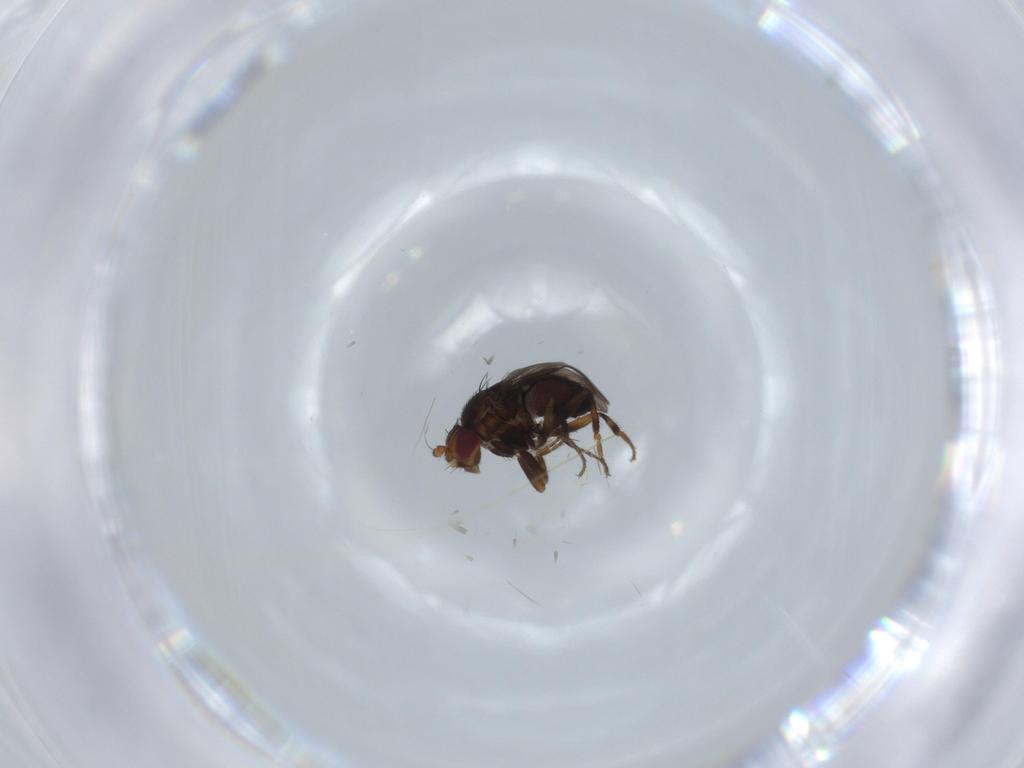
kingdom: Animalia
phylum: Arthropoda
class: Insecta
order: Diptera
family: Sphaeroceridae
